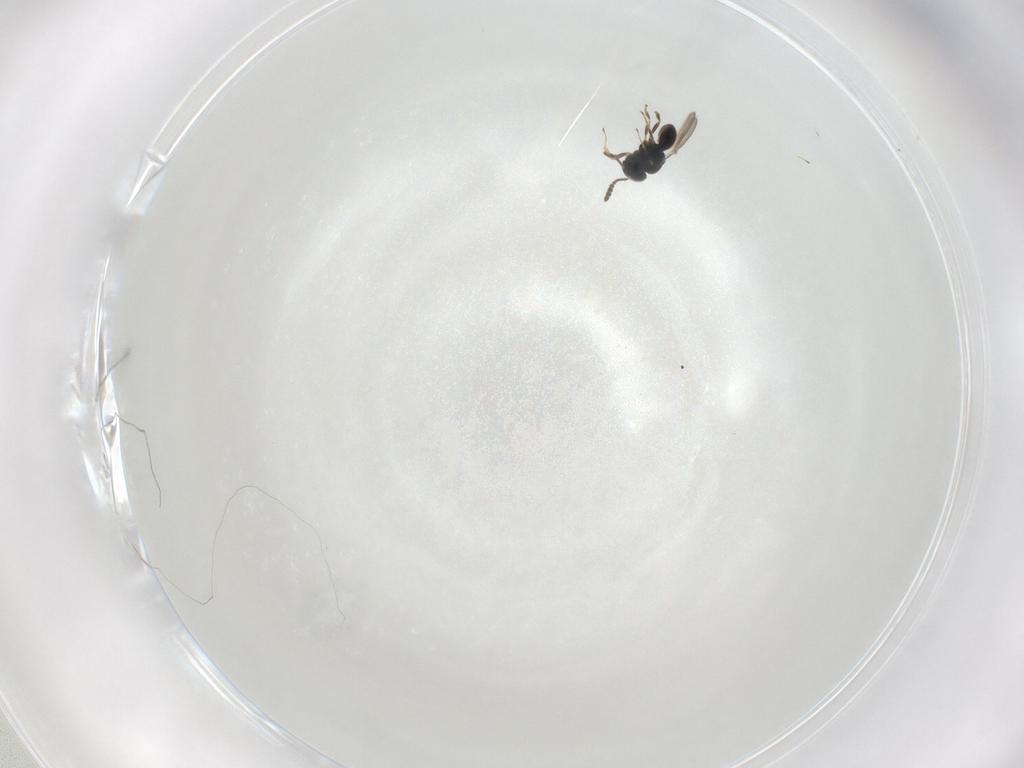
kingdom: Animalia
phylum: Arthropoda
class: Insecta
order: Hymenoptera
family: Scelionidae
